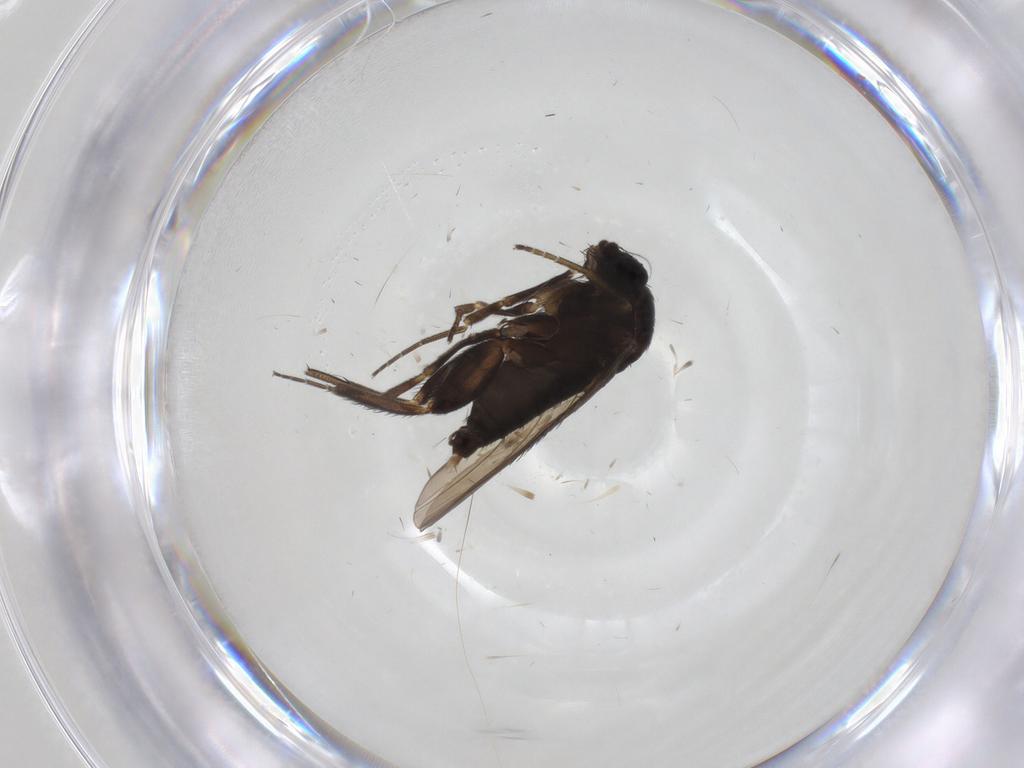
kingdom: Animalia
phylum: Arthropoda
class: Insecta
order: Diptera
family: Phoridae
